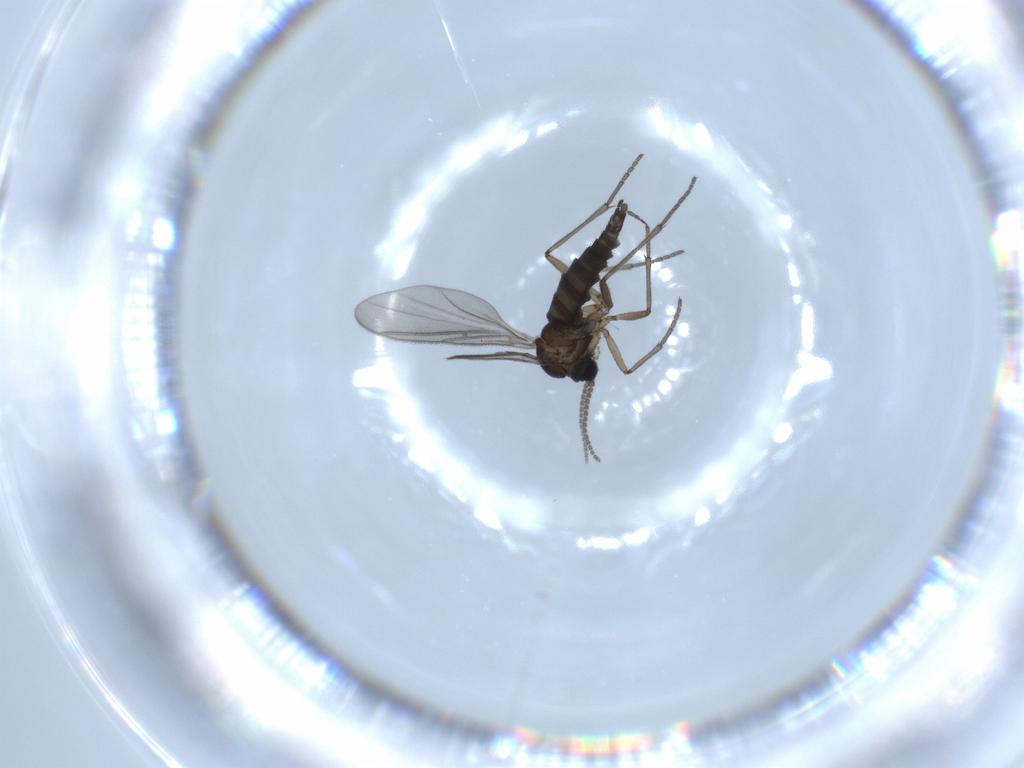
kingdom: Animalia
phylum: Arthropoda
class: Insecta
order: Diptera
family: Sciaridae
